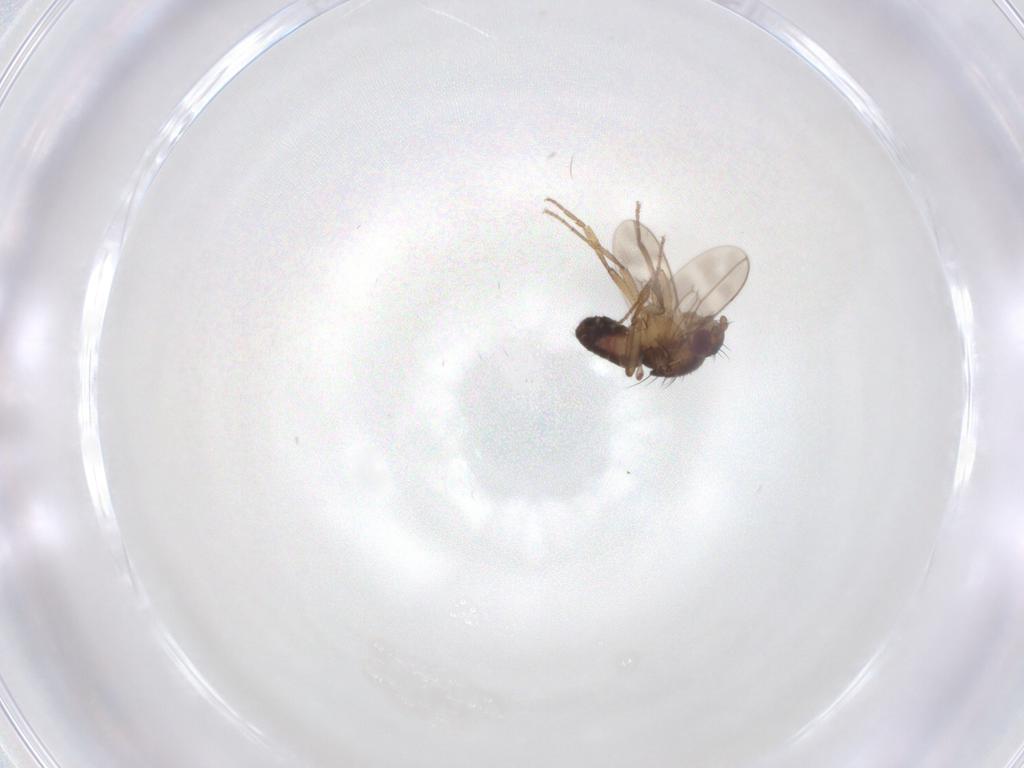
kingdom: Animalia
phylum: Arthropoda
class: Insecta
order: Diptera
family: Sphaeroceridae
